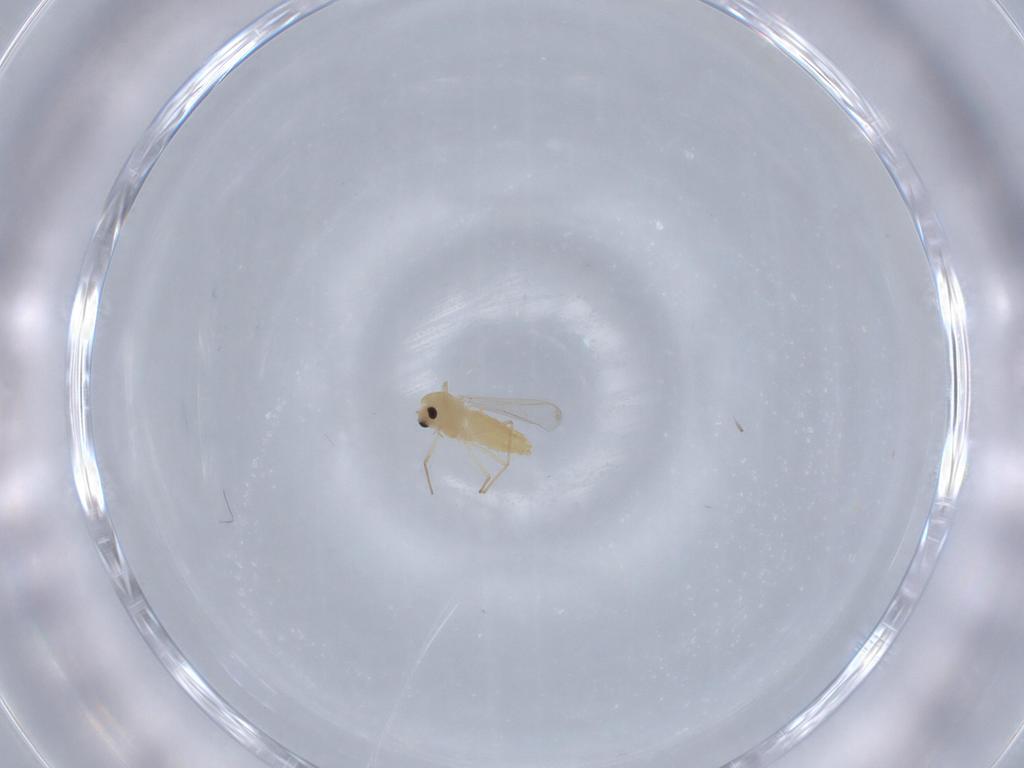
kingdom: Animalia
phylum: Arthropoda
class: Insecta
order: Diptera
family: Chironomidae
